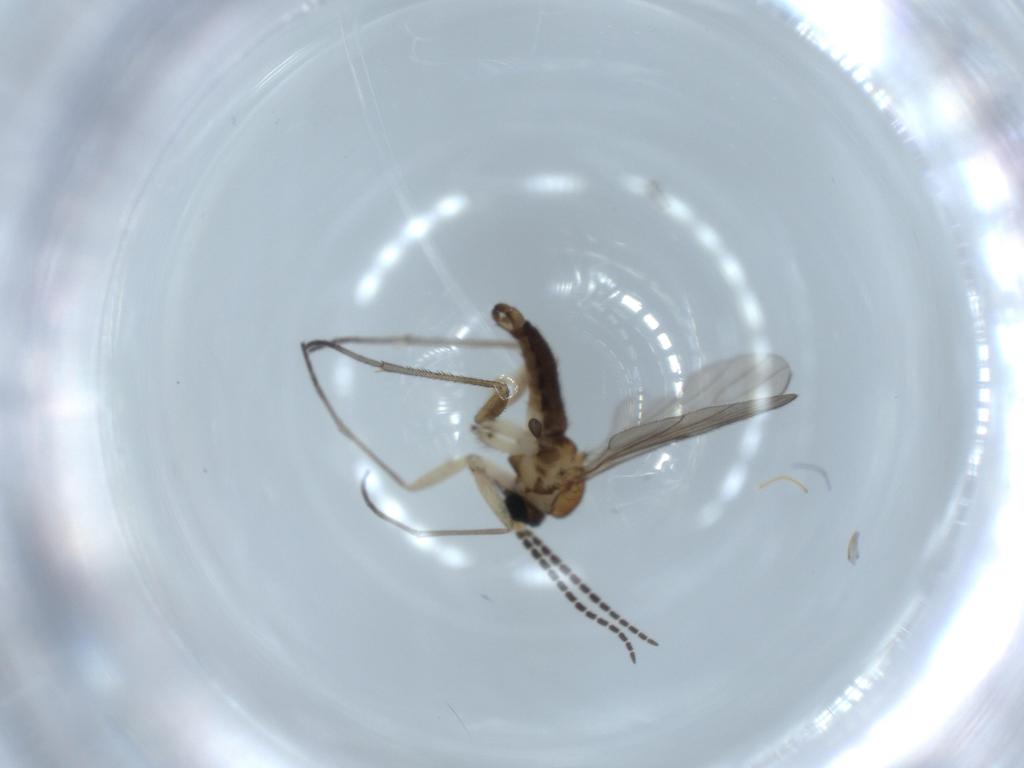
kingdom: Animalia
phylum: Arthropoda
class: Insecta
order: Diptera
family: Sciaridae
